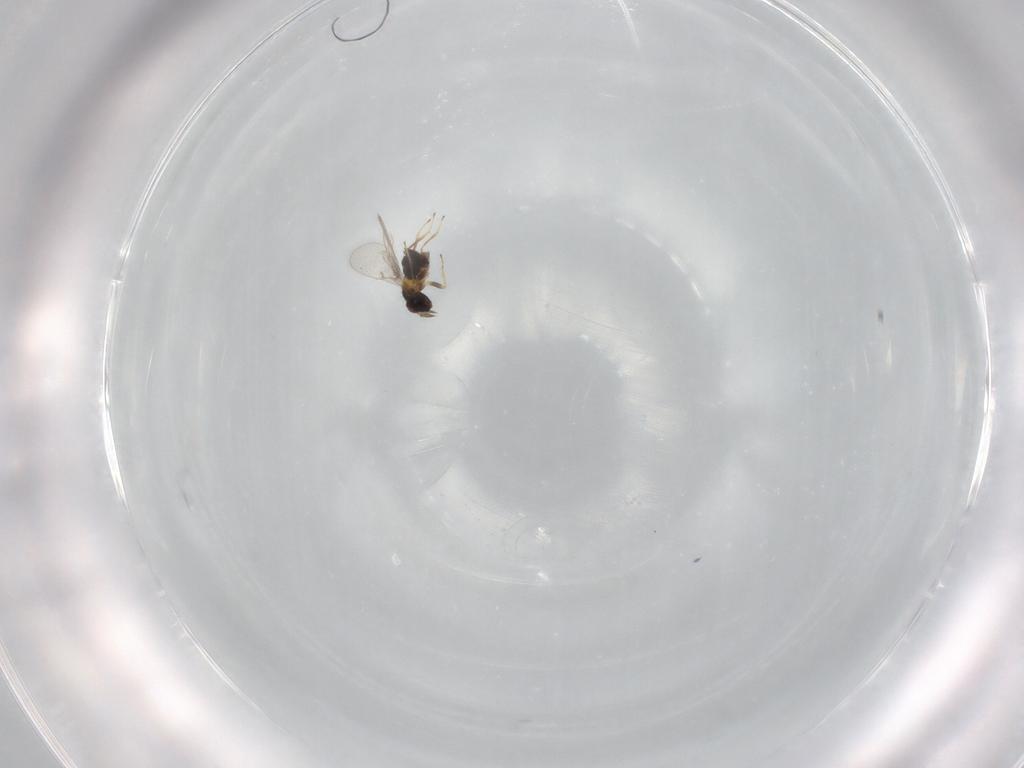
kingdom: Animalia
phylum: Arthropoda
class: Insecta
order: Hymenoptera
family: Trichogrammatidae
